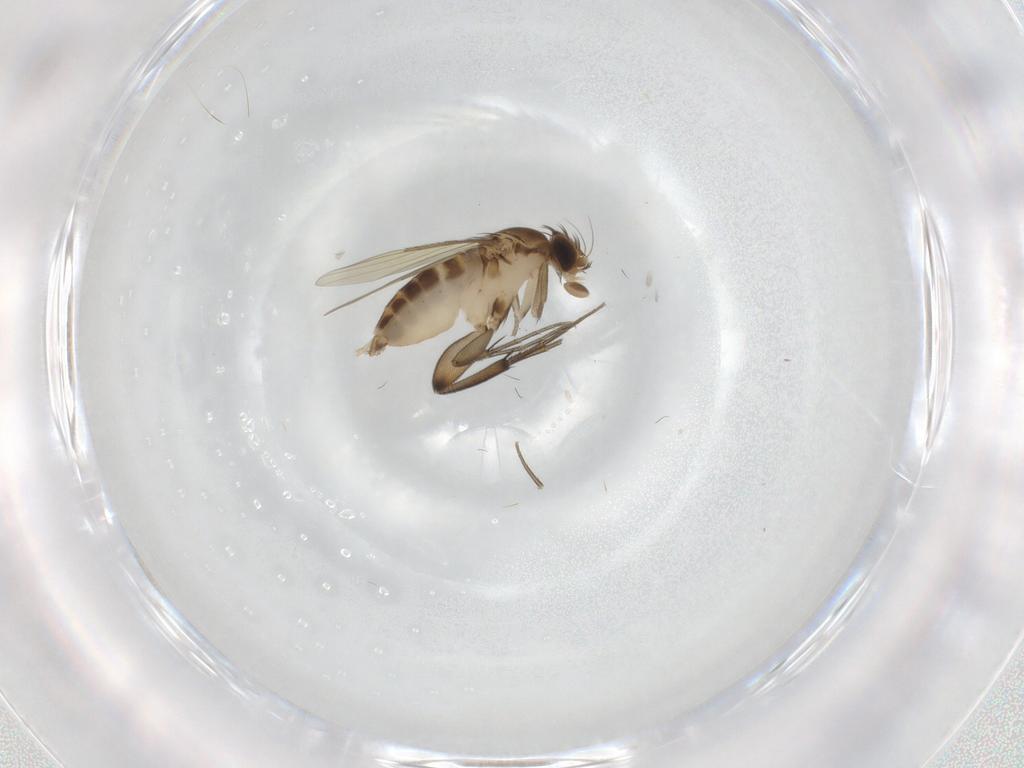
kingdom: Animalia
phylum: Arthropoda
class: Insecta
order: Diptera
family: Phoridae
